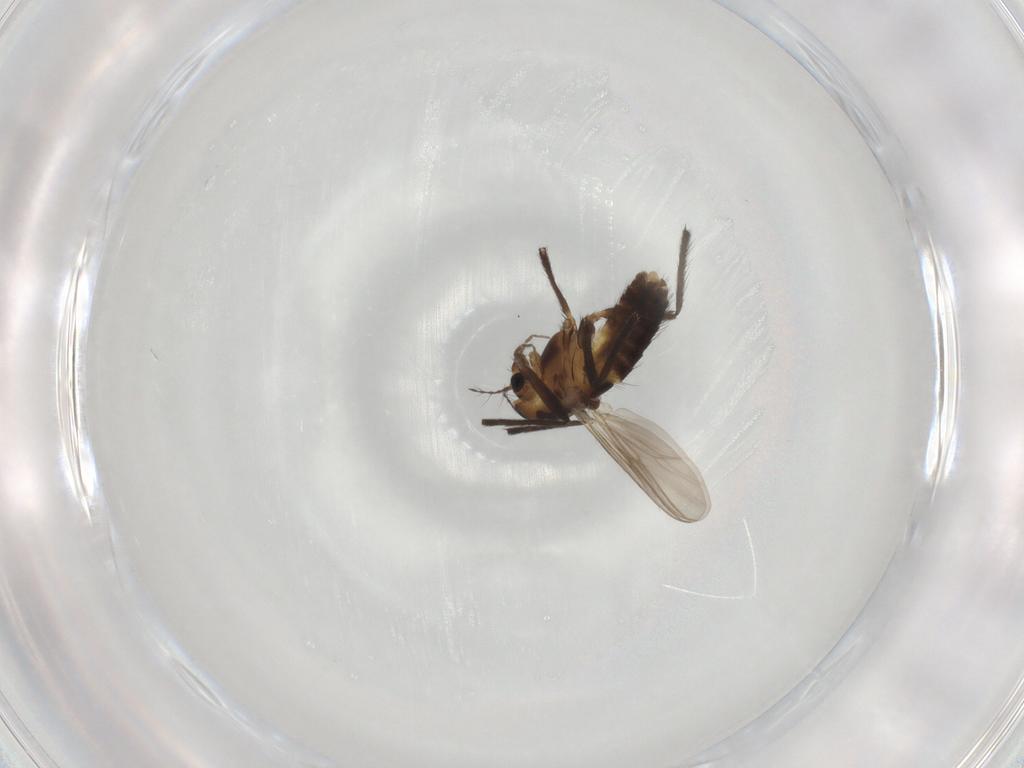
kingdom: Animalia
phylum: Arthropoda
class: Insecta
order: Diptera
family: Chironomidae
